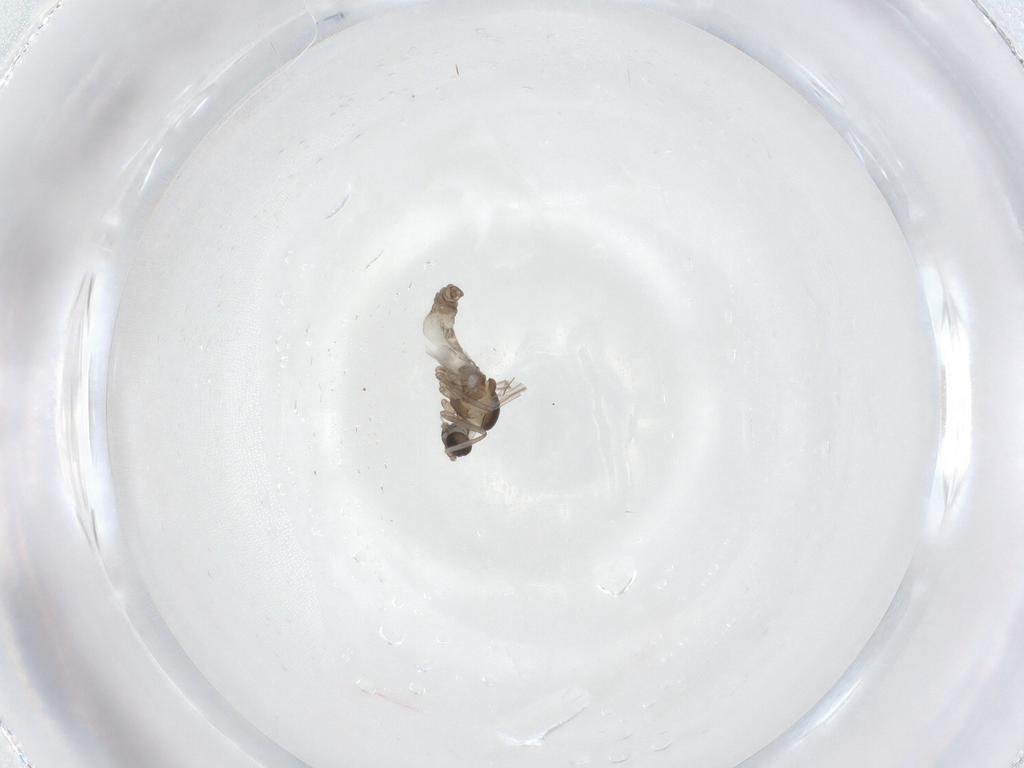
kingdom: Animalia
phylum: Arthropoda
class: Insecta
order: Diptera
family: Cecidomyiidae
